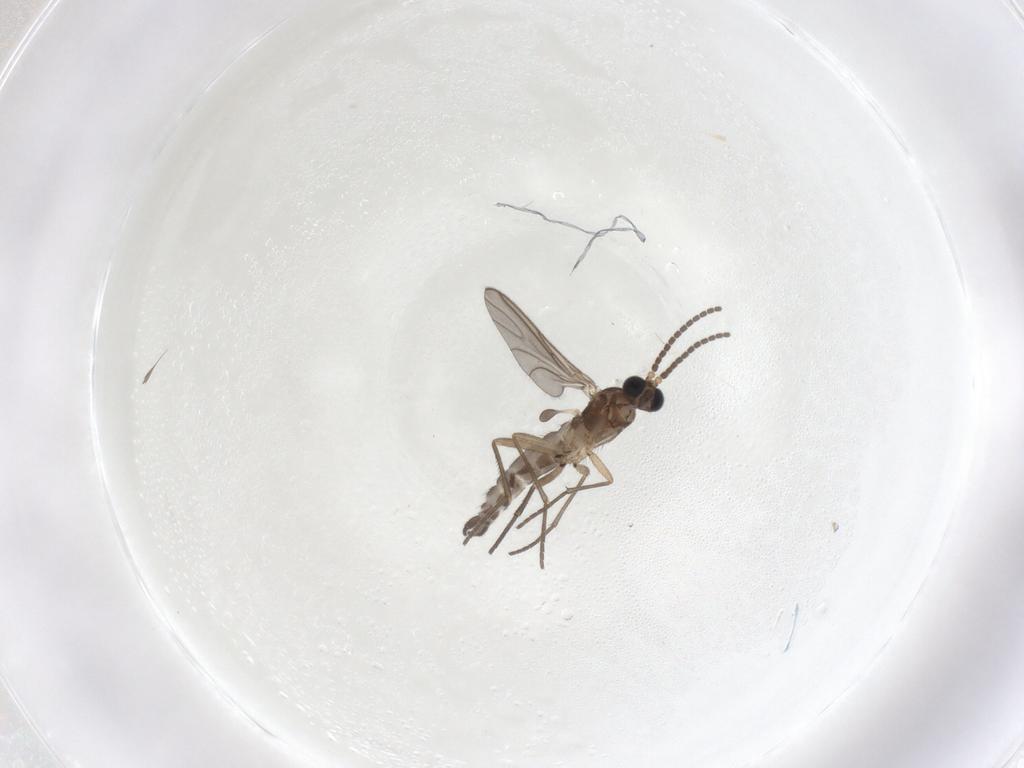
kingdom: Animalia
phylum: Arthropoda
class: Insecta
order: Diptera
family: Sciaridae
